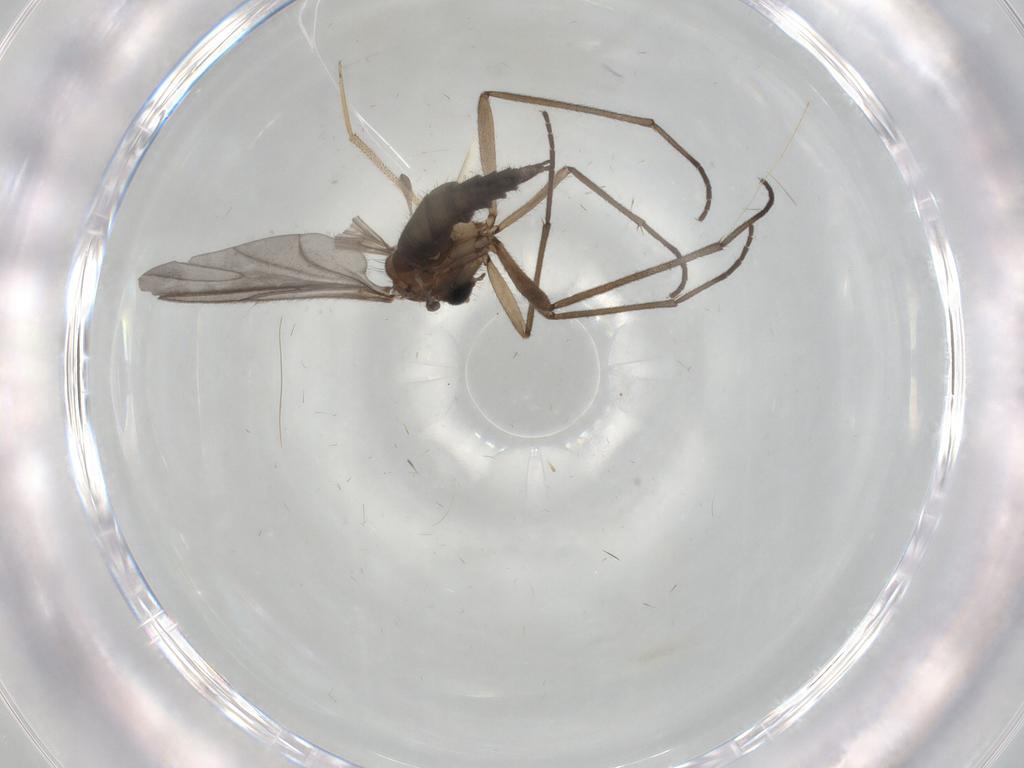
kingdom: Animalia
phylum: Arthropoda
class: Insecta
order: Diptera
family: Sciaridae
